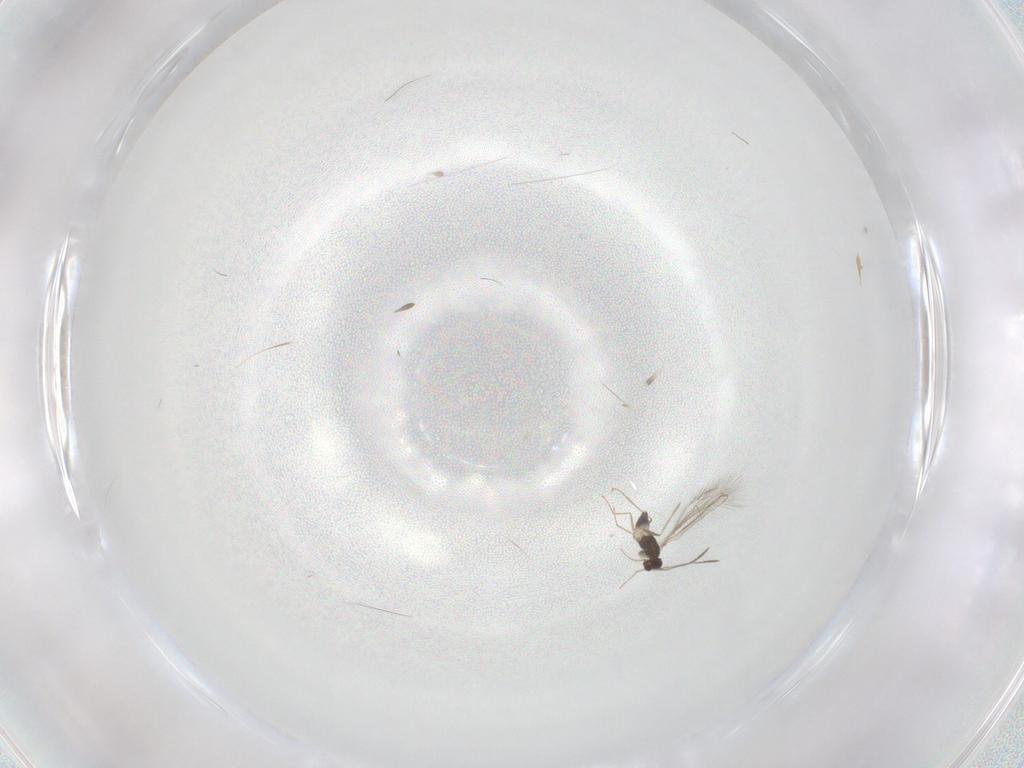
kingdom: Animalia
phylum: Arthropoda
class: Insecta
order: Hymenoptera
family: Mymaridae
